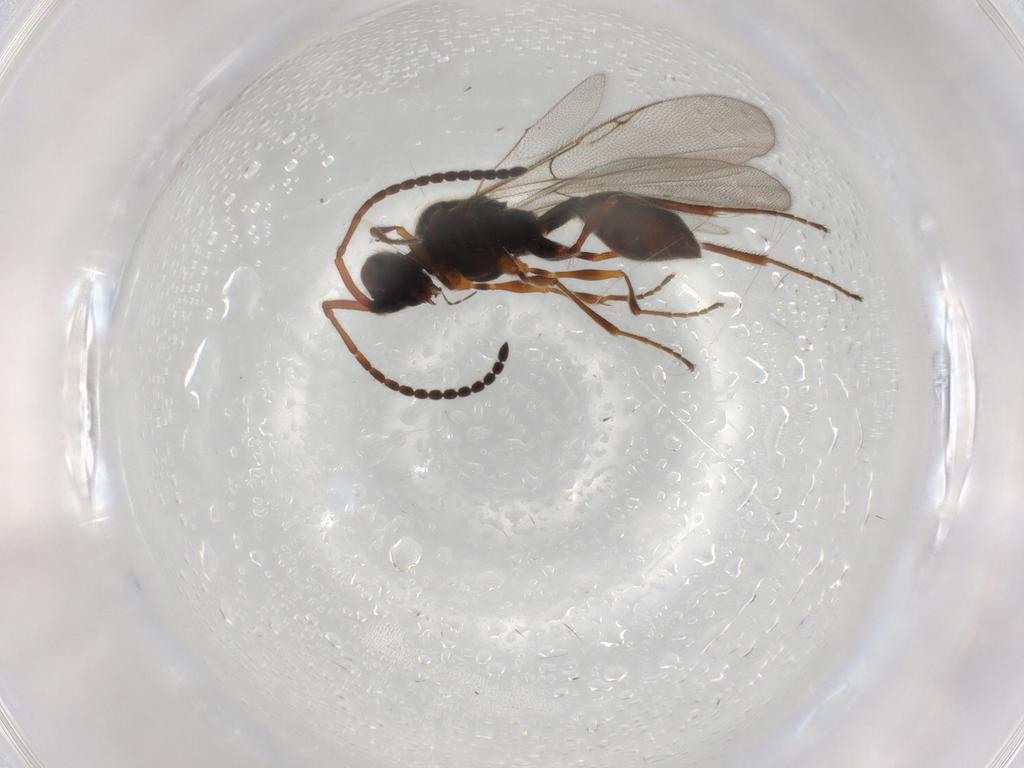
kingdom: Animalia
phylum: Arthropoda
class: Insecta
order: Hymenoptera
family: Diapriidae
